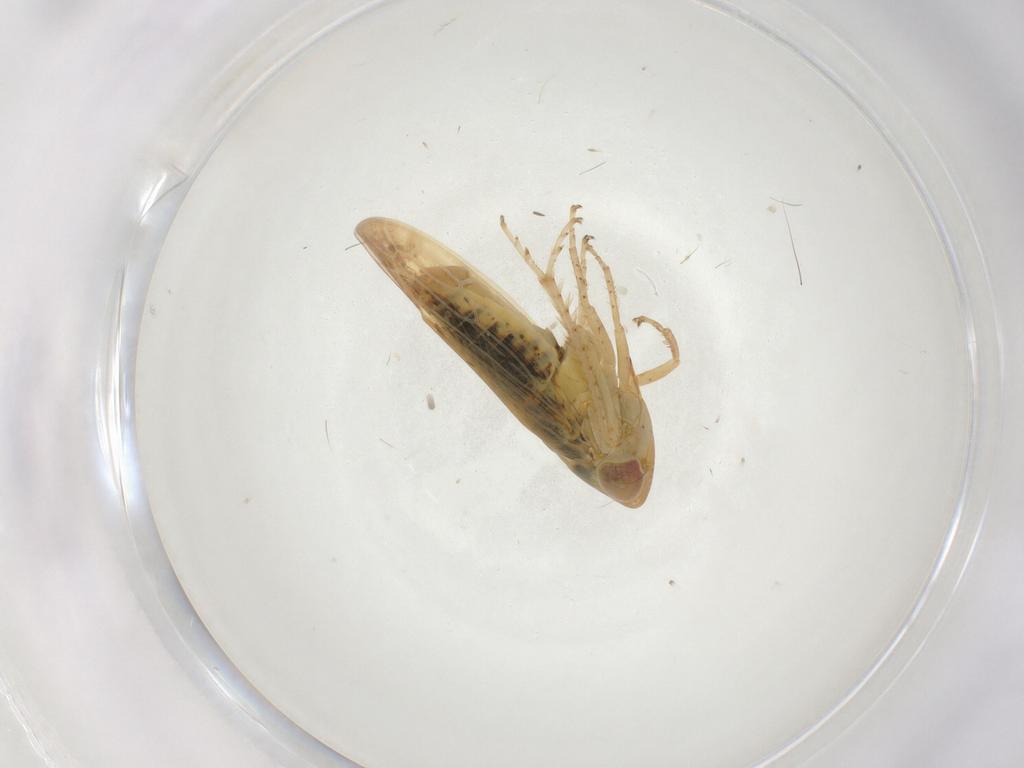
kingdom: Animalia
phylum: Arthropoda
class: Insecta
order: Hemiptera
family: Cicadellidae
